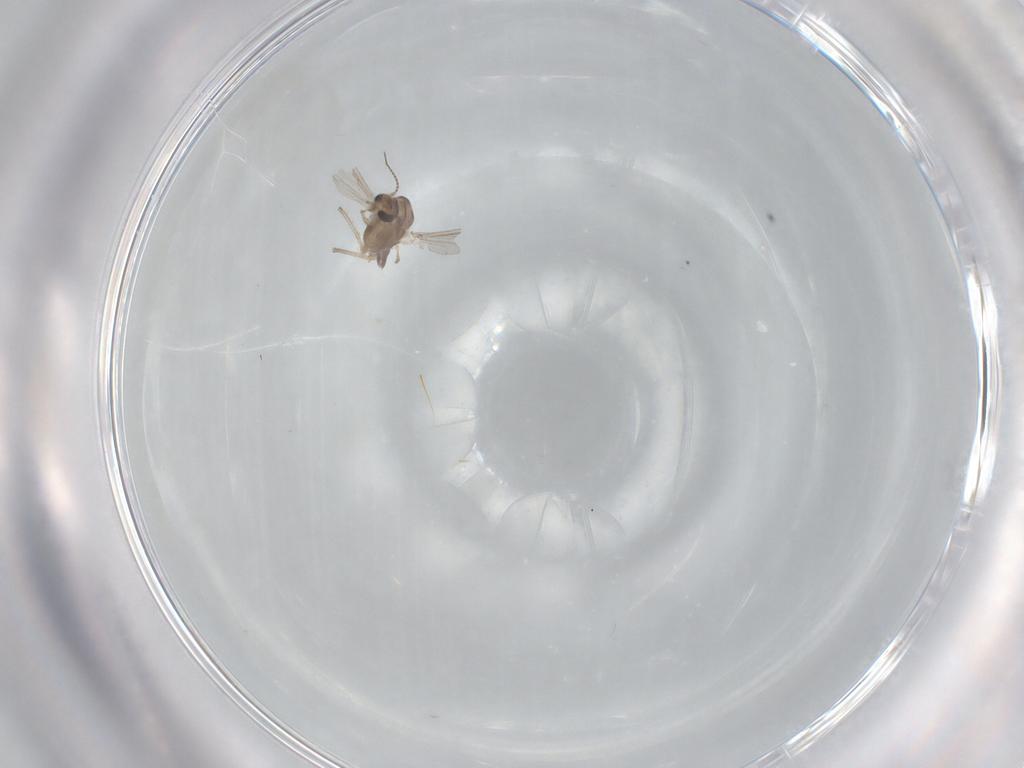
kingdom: Animalia
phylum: Arthropoda
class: Insecta
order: Diptera
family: Chironomidae
